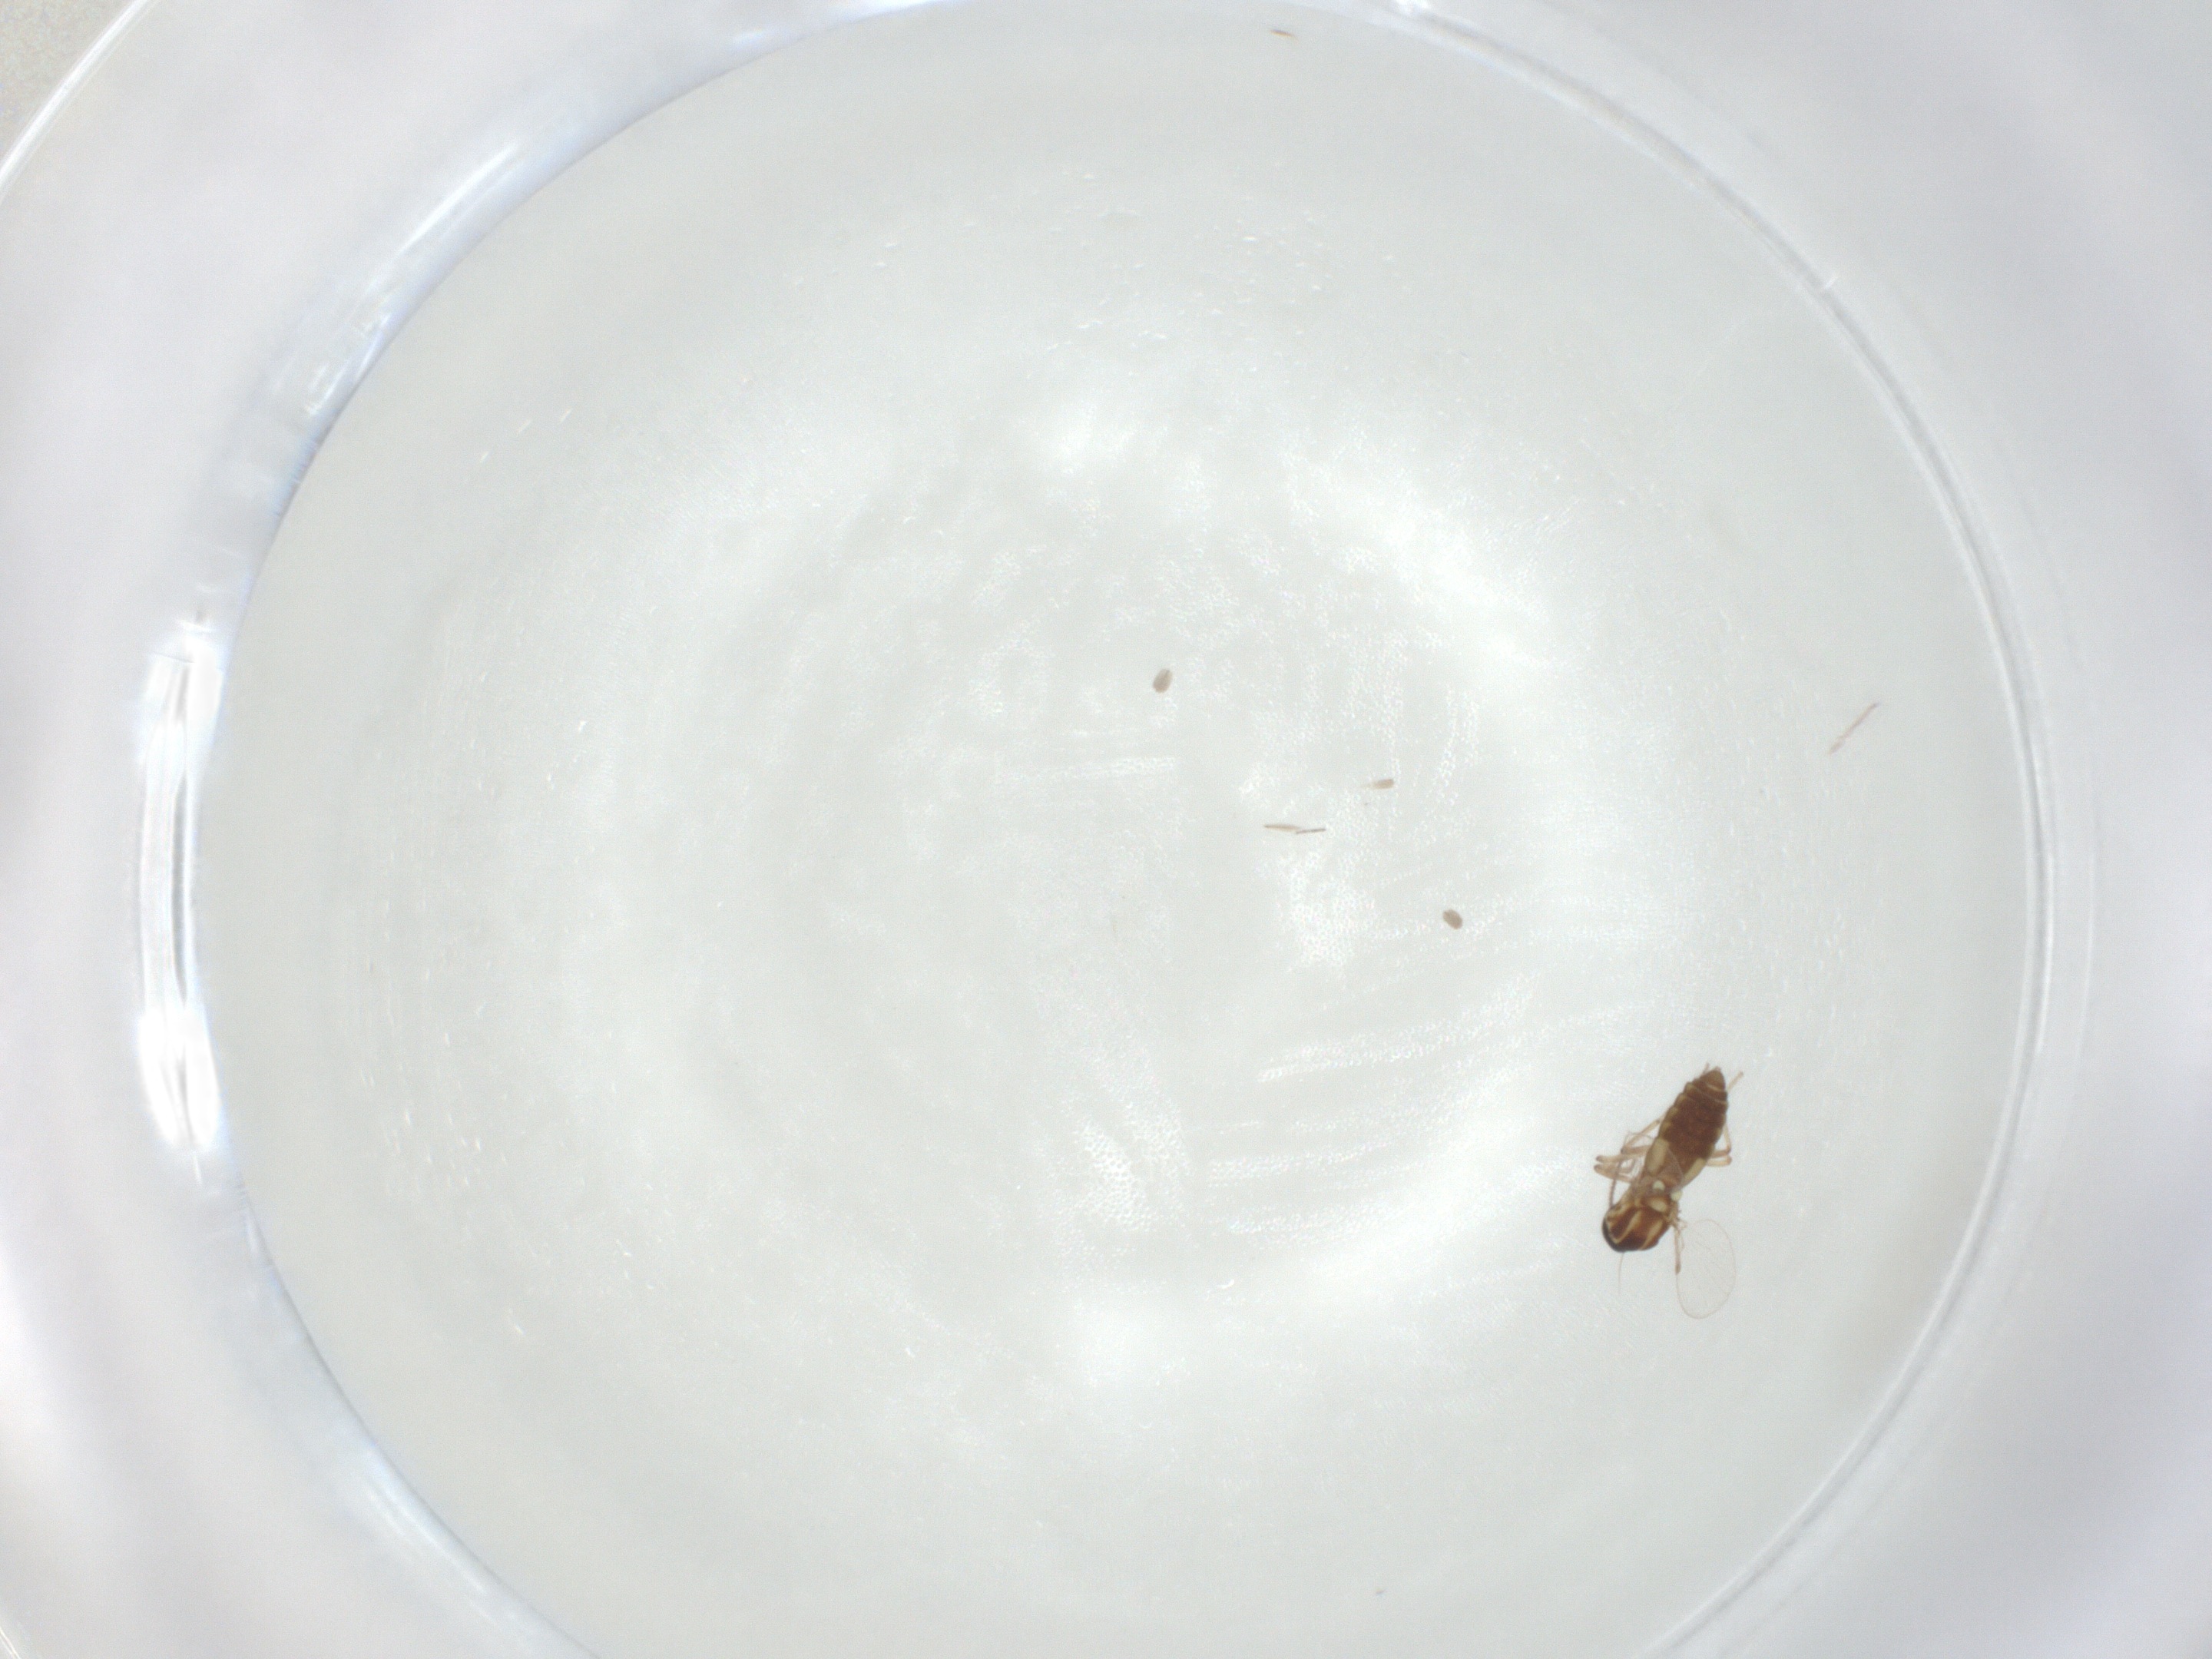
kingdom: Animalia
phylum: Arthropoda
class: Insecta
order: Diptera
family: Ceratopogonidae
